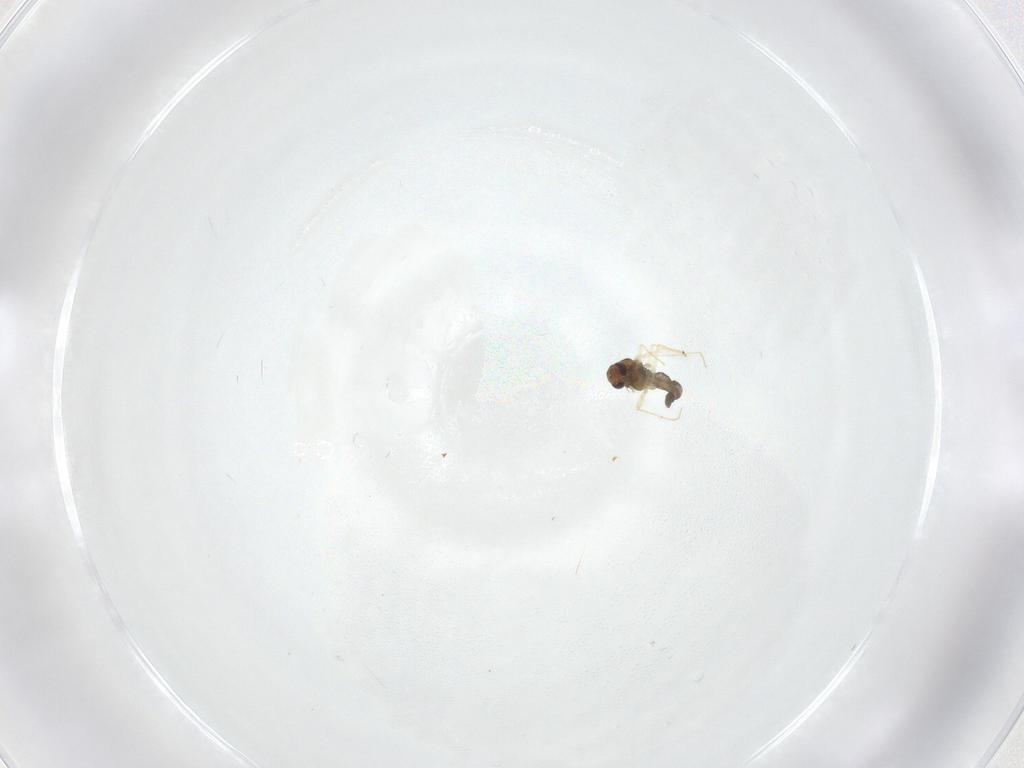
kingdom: Animalia
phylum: Arthropoda
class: Insecta
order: Diptera
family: Chironomidae
